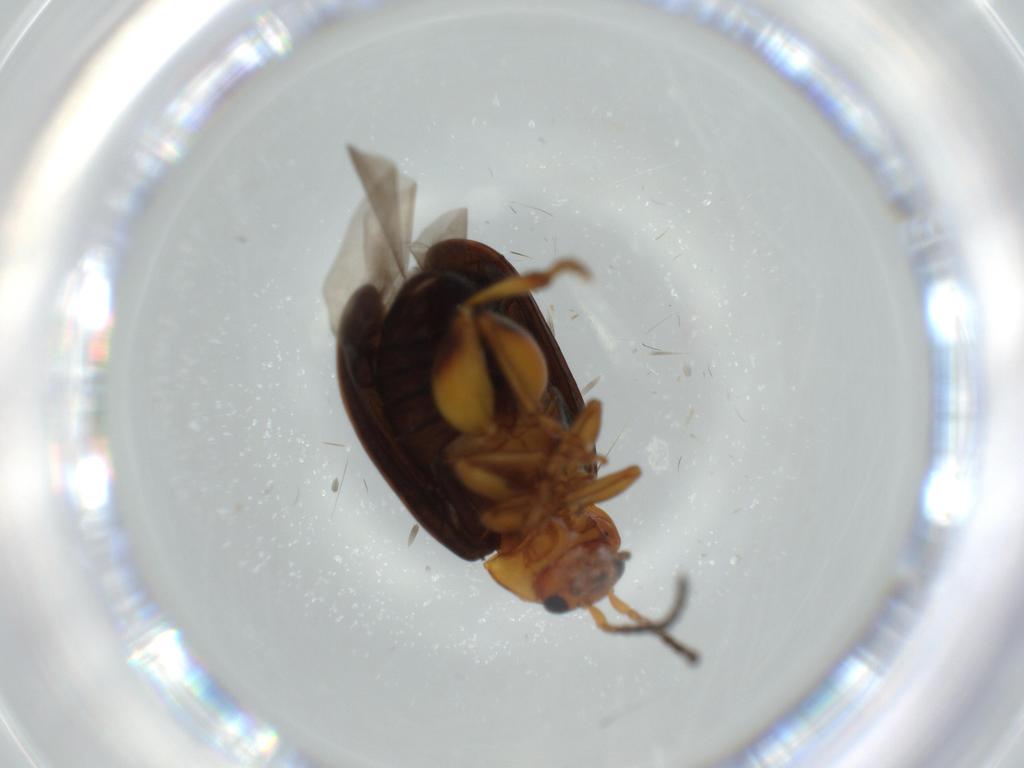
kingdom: Animalia
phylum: Arthropoda
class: Insecta
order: Coleoptera
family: Chrysomelidae
